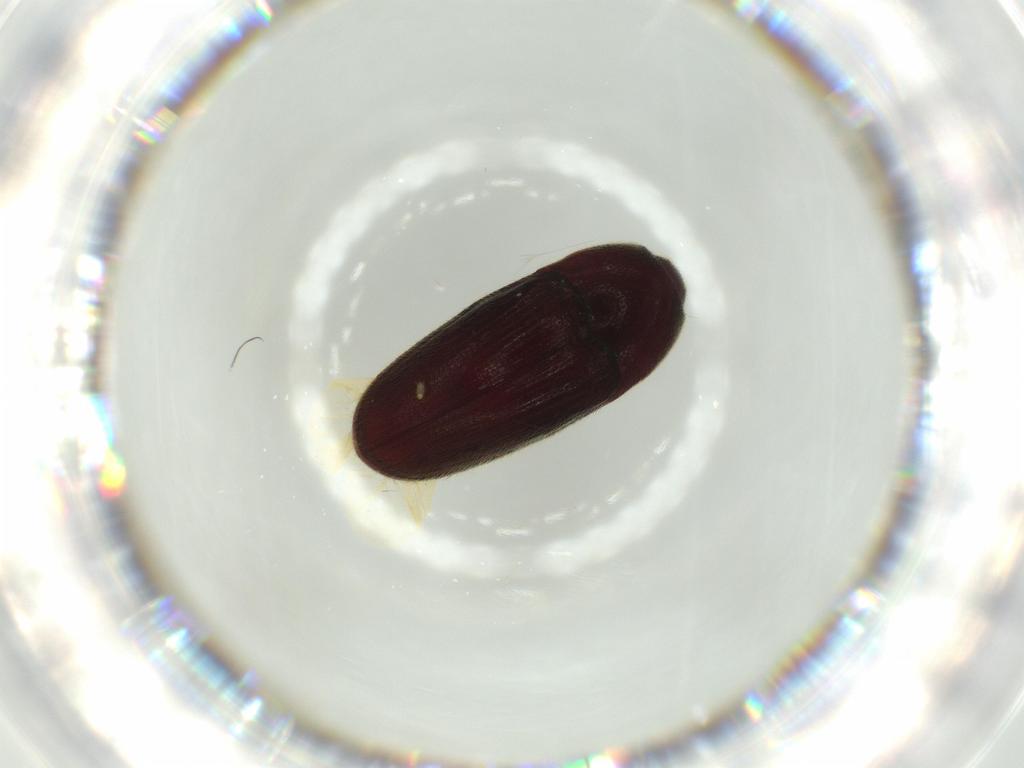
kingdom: Animalia
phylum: Arthropoda
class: Insecta
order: Coleoptera
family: Throscidae
